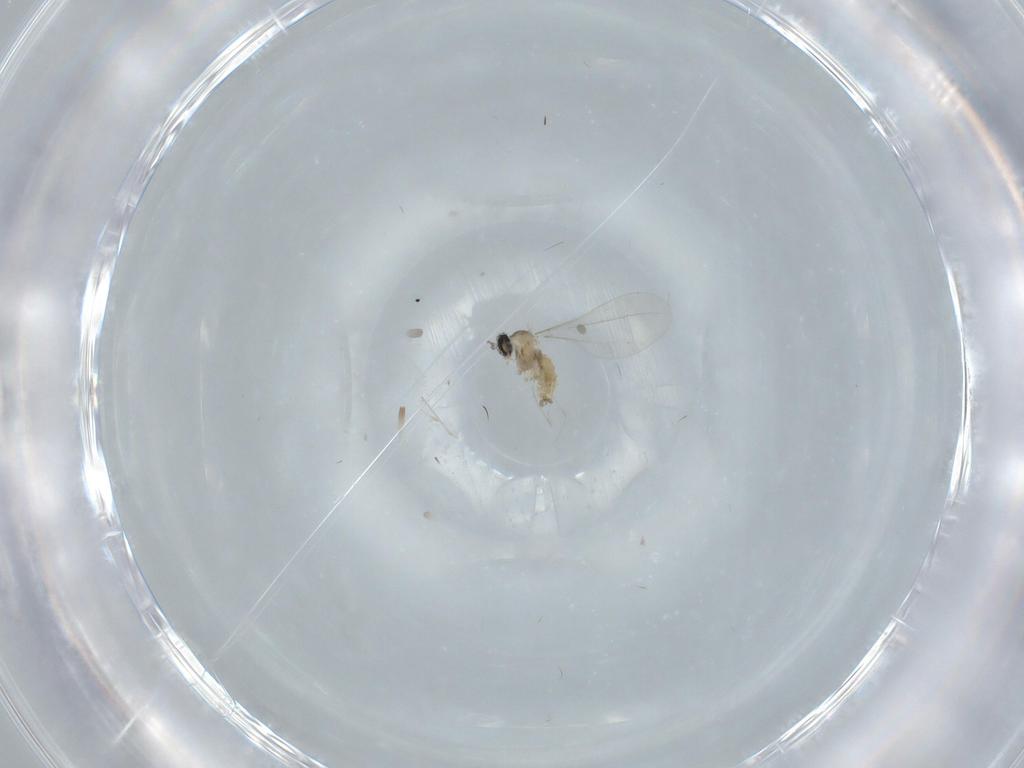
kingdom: Animalia
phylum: Arthropoda
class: Insecta
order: Diptera
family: Cecidomyiidae
